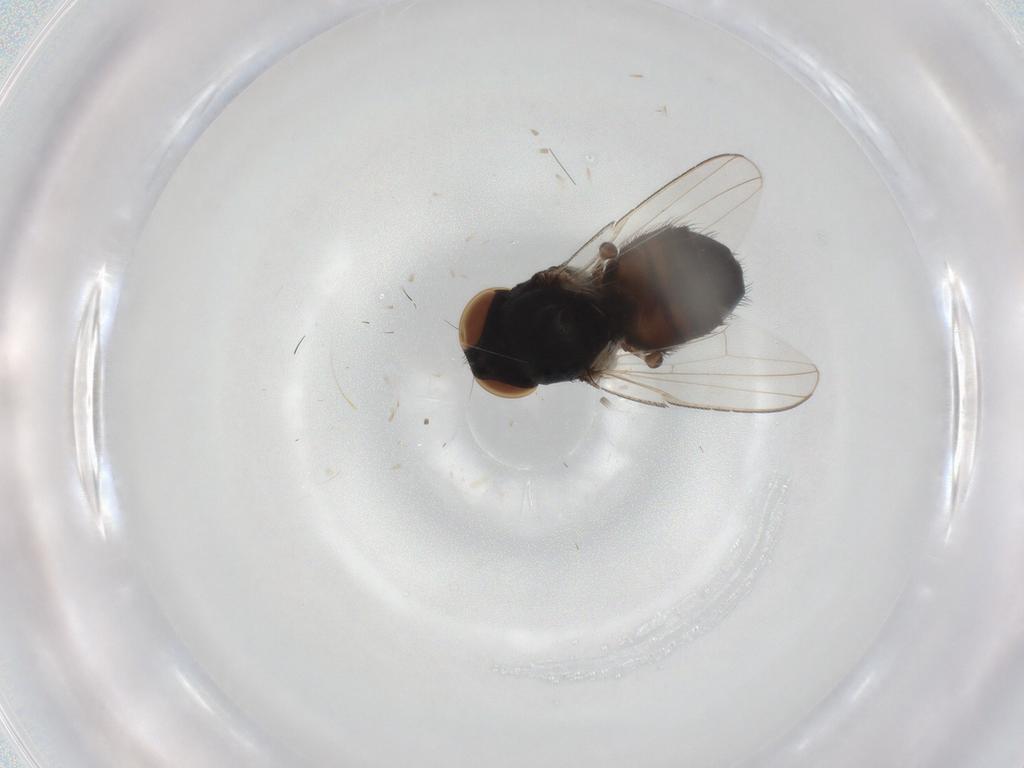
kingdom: Animalia
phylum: Arthropoda
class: Insecta
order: Diptera
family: Milichiidae
